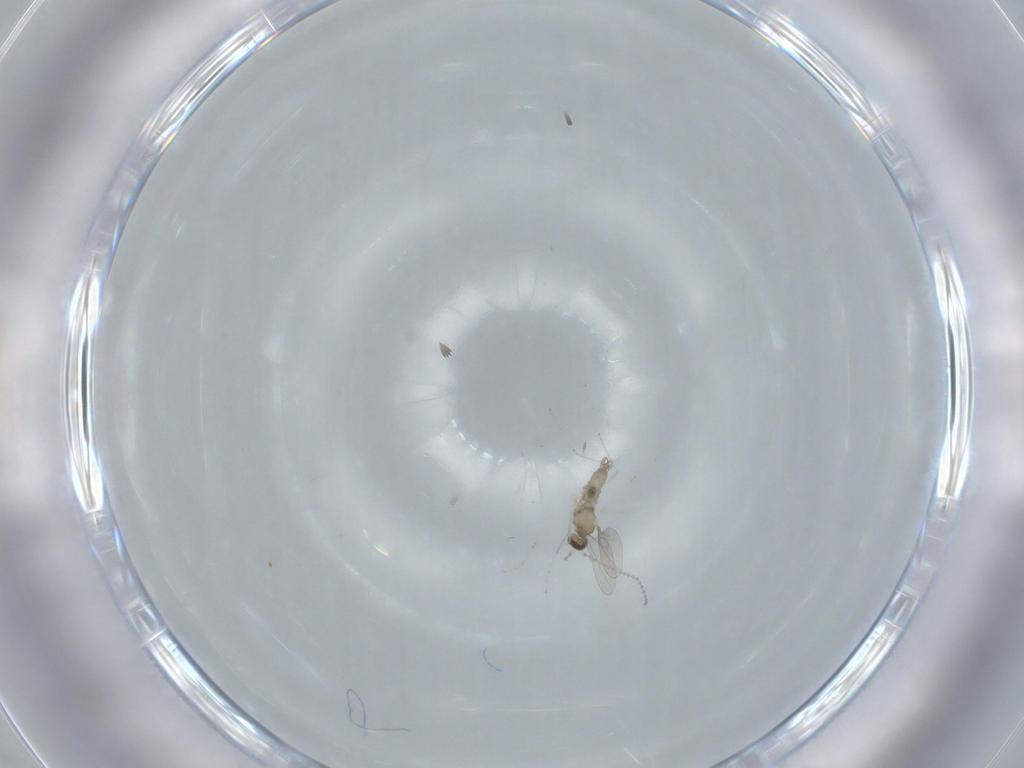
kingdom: Animalia
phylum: Arthropoda
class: Insecta
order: Diptera
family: Cecidomyiidae
